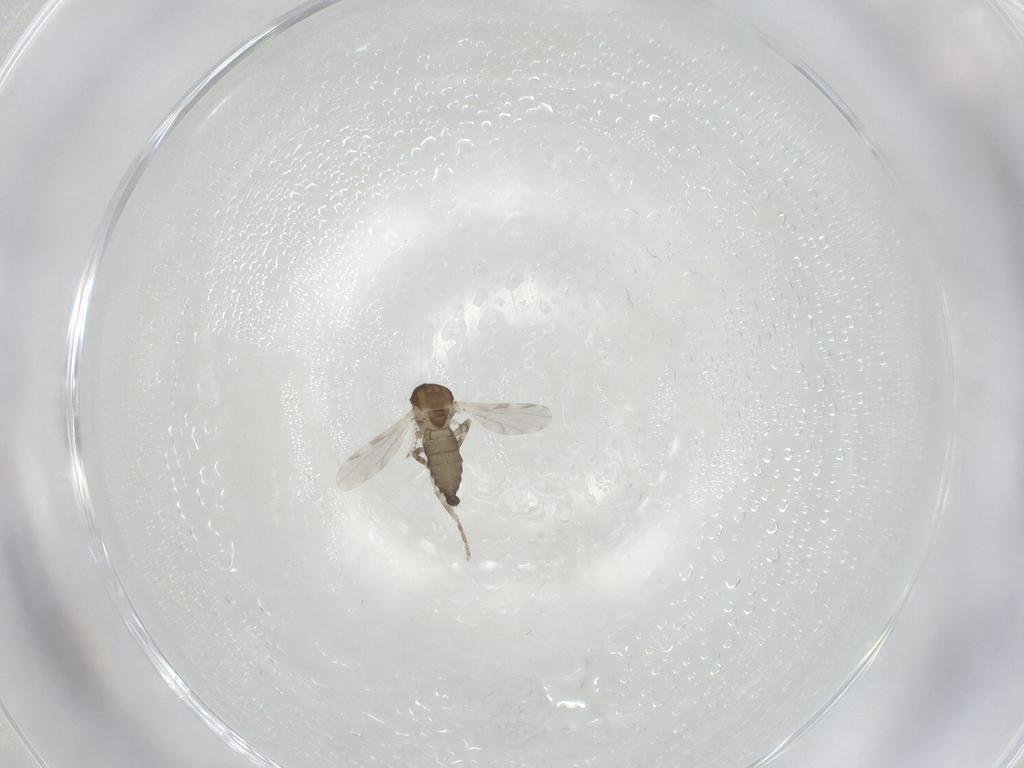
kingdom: Animalia
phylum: Arthropoda
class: Insecta
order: Diptera
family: Ceratopogonidae
